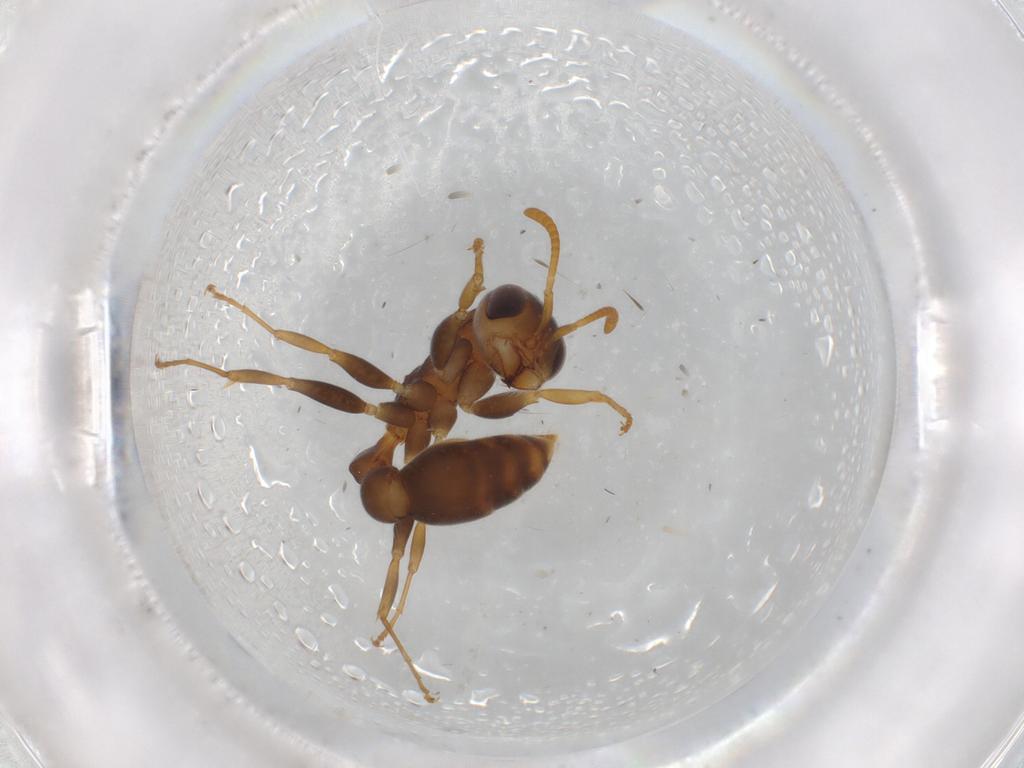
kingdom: Animalia
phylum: Arthropoda
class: Insecta
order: Hymenoptera
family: Formicidae
